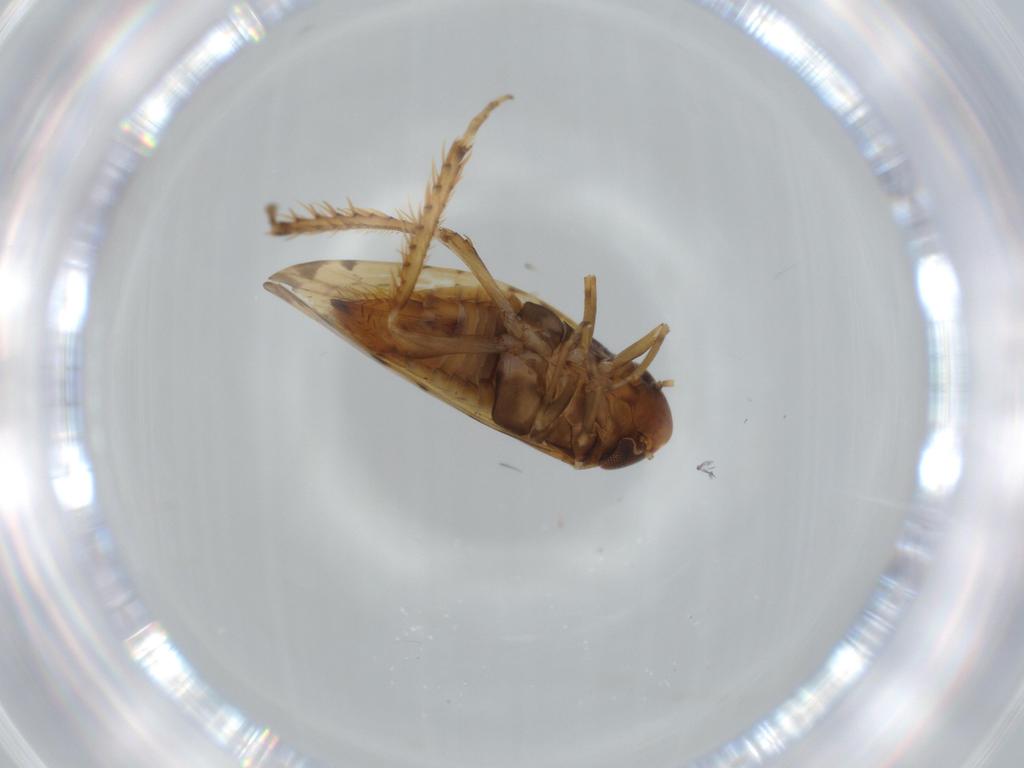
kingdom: Animalia
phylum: Arthropoda
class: Insecta
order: Hemiptera
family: Cicadellidae
